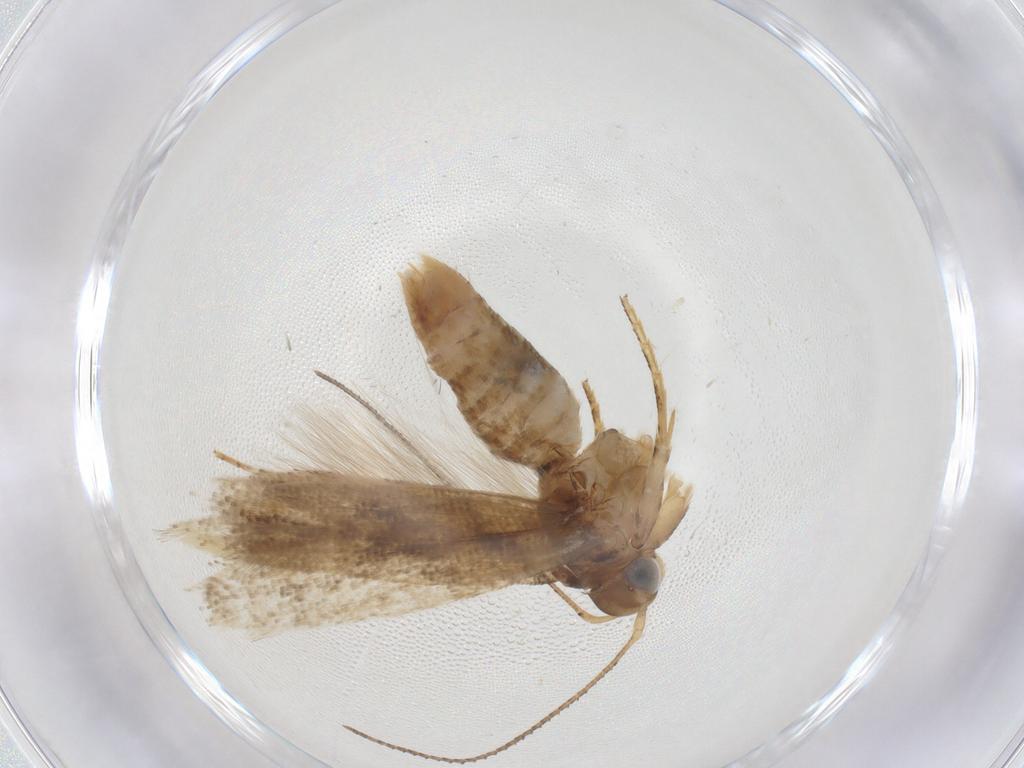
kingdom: Animalia
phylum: Arthropoda
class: Insecta
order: Lepidoptera
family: Gelechiidae
